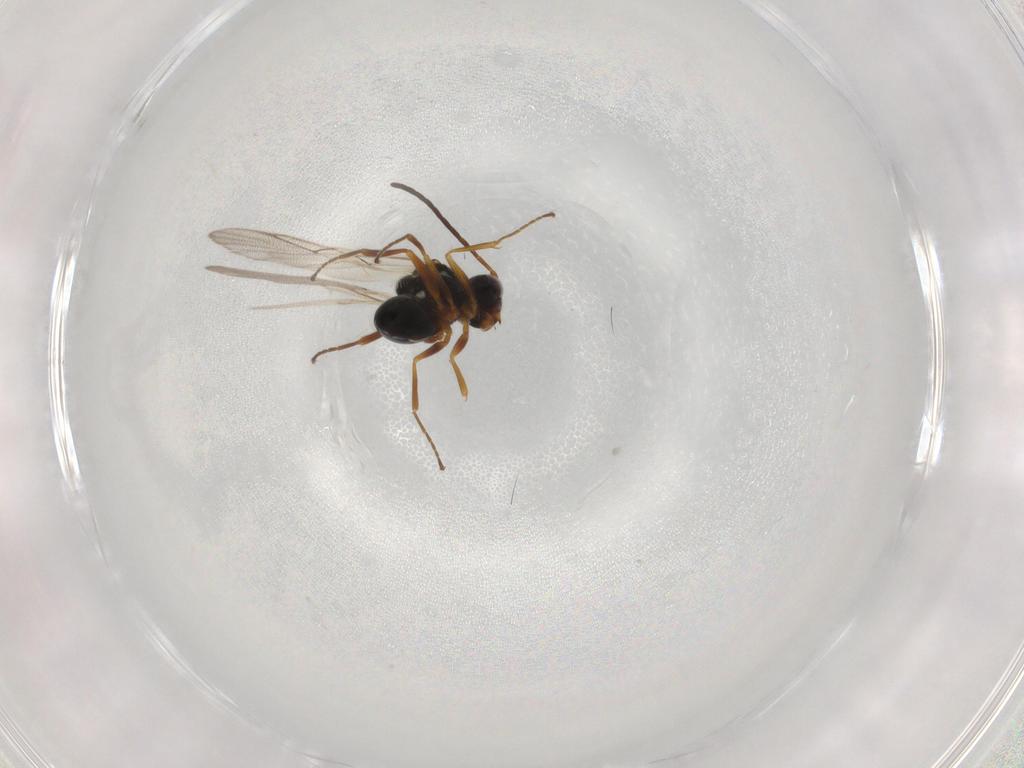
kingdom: Animalia
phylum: Arthropoda
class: Insecta
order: Hymenoptera
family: Figitidae
